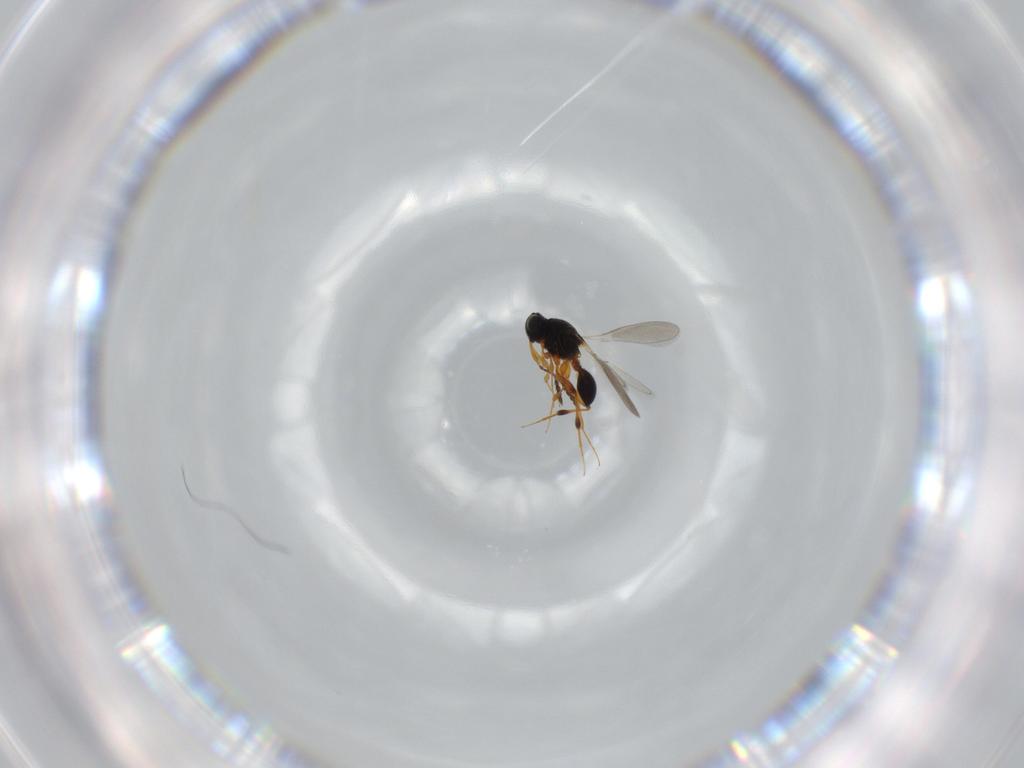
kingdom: Animalia
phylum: Arthropoda
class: Insecta
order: Hymenoptera
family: Platygastridae
